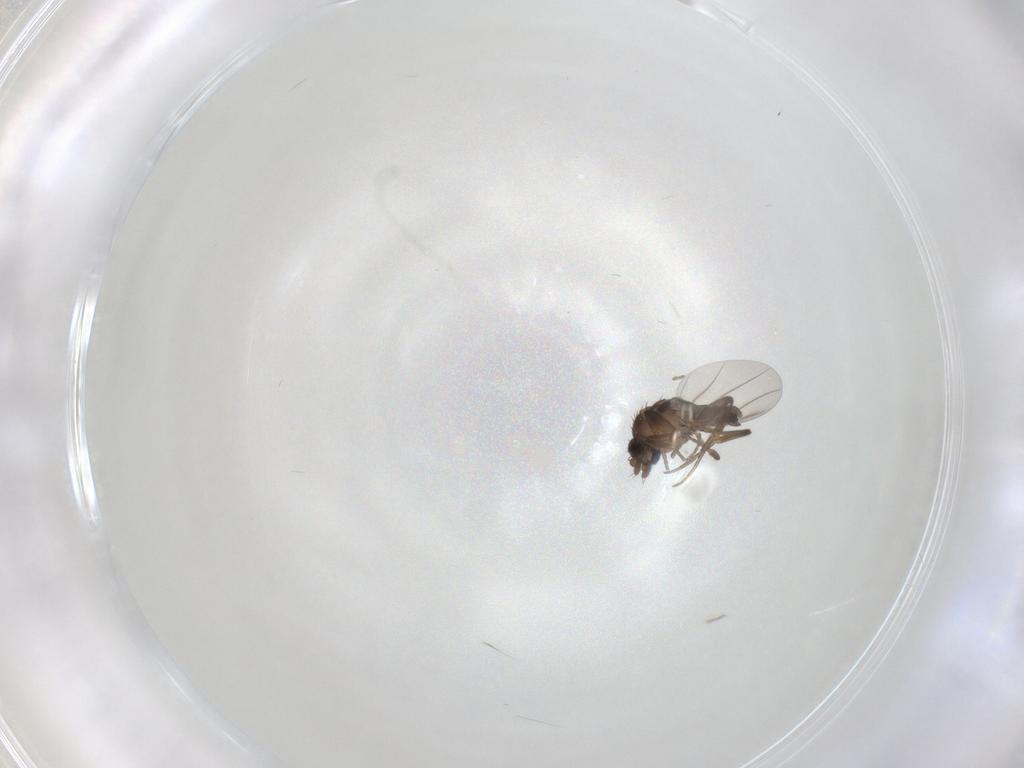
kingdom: Animalia
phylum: Arthropoda
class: Insecta
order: Diptera
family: Phoridae
